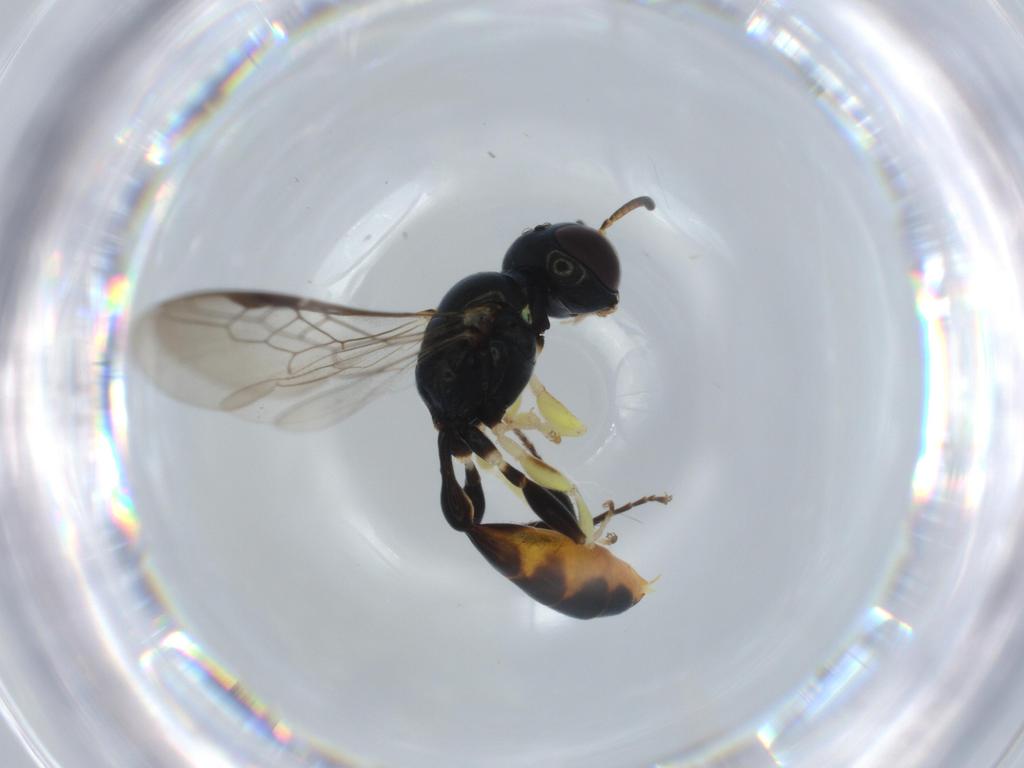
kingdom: Animalia
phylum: Arthropoda
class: Insecta
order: Hymenoptera
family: Crabronidae
